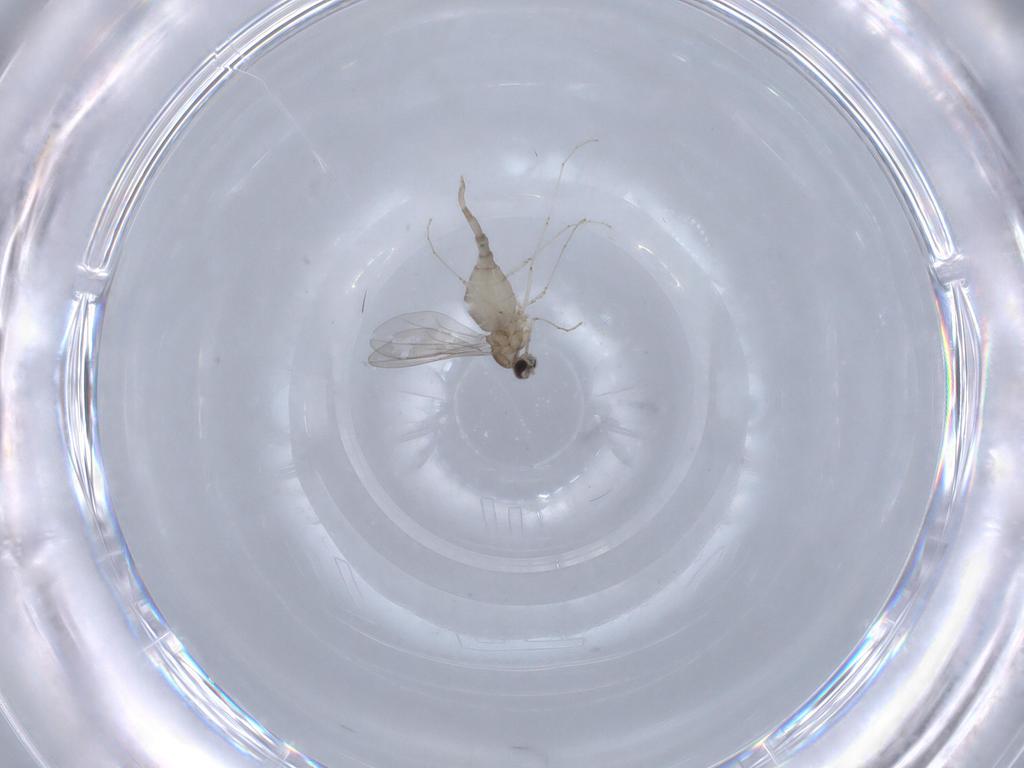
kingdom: Animalia
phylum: Arthropoda
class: Insecta
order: Diptera
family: Cecidomyiidae
